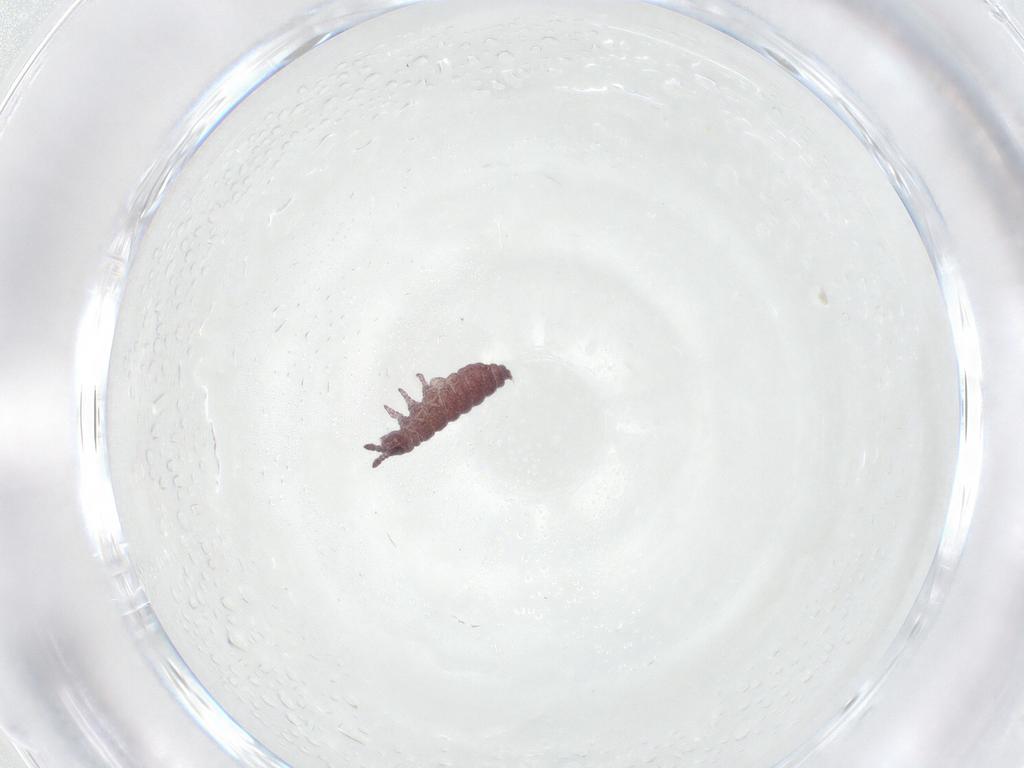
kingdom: Animalia
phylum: Arthropoda
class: Collembola
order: Poduromorpha
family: Hypogastruridae
